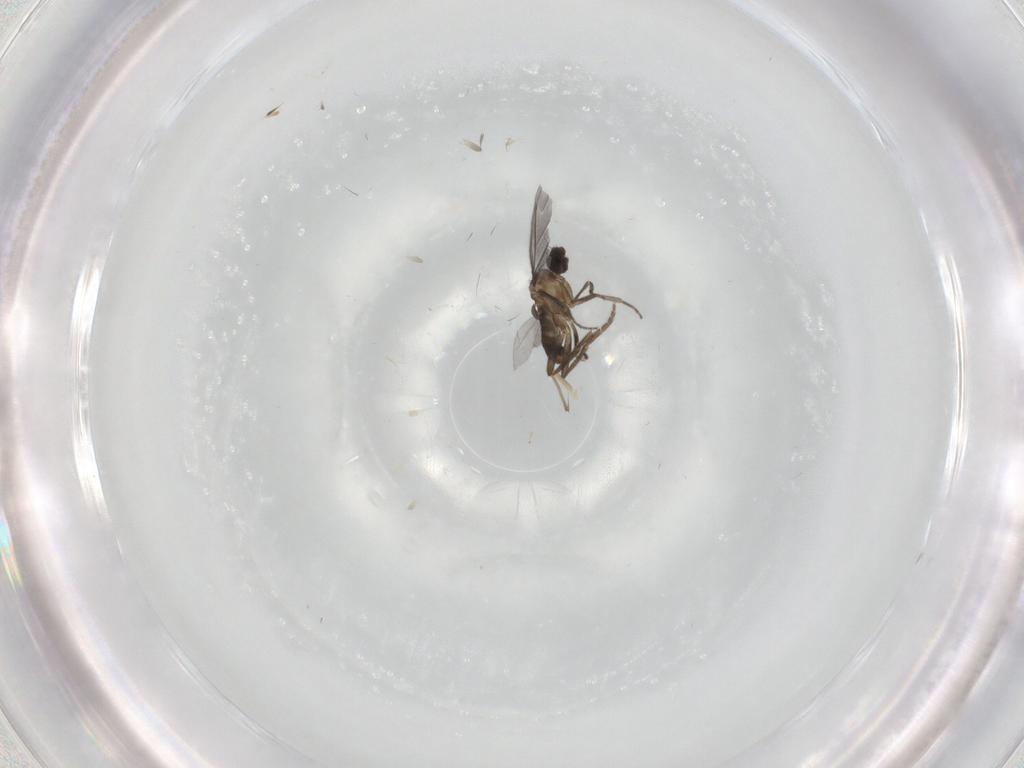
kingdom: Animalia
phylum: Arthropoda
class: Insecta
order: Diptera
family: Phoridae
